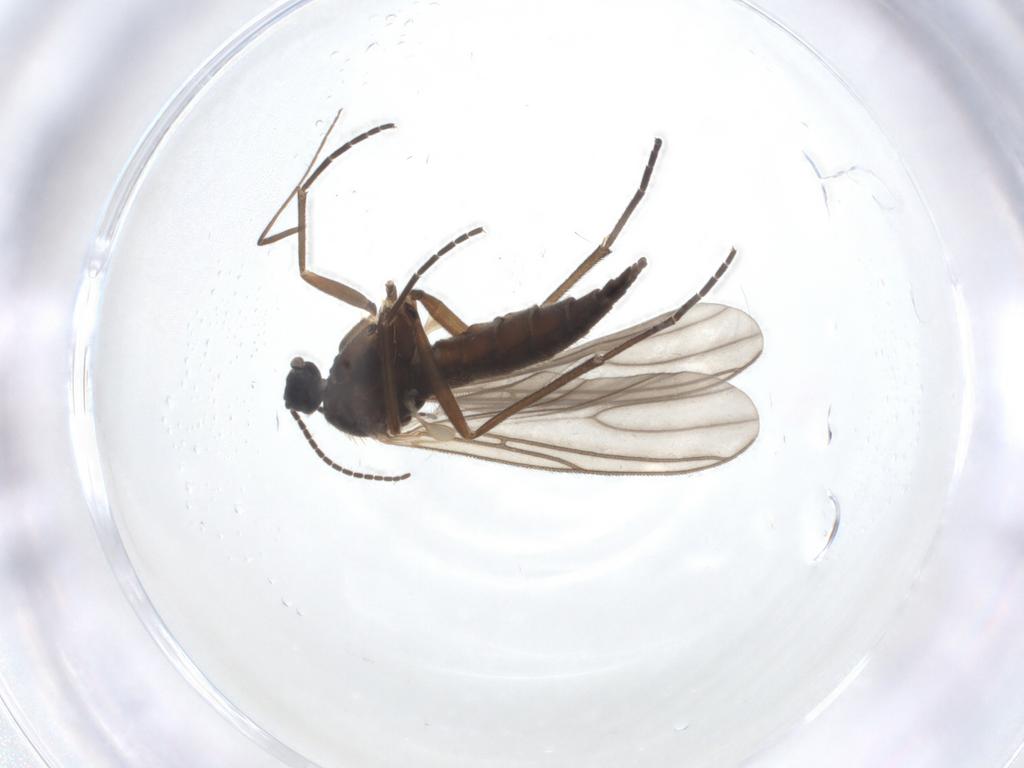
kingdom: Animalia
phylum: Arthropoda
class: Insecta
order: Diptera
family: Sciaridae
